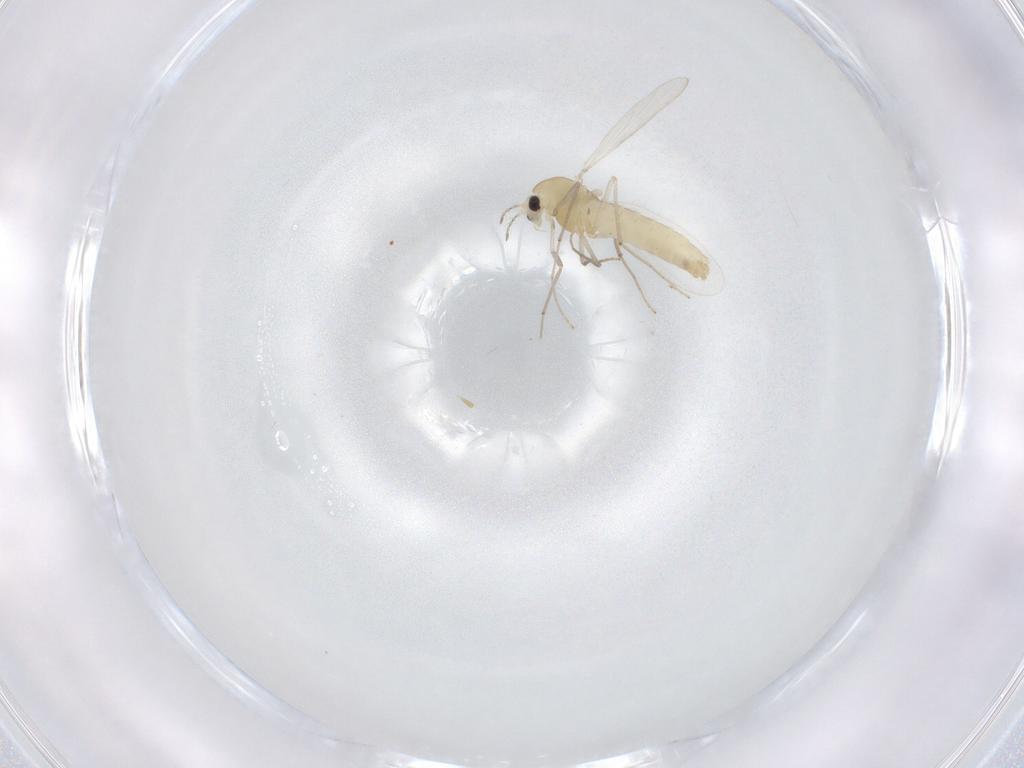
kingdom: Animalia
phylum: Arthropoda
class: Insecta
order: Diptera
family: Chironomidae
